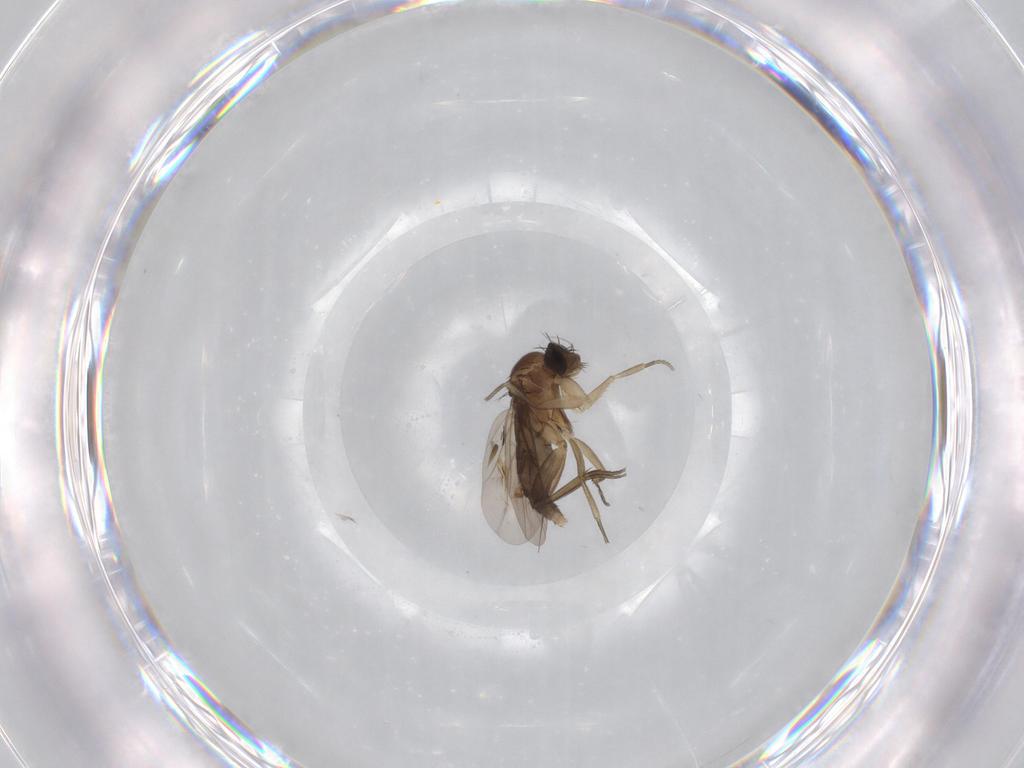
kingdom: Animalia
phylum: Arthropoda
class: Insecta
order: Diptera
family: Phoridae
